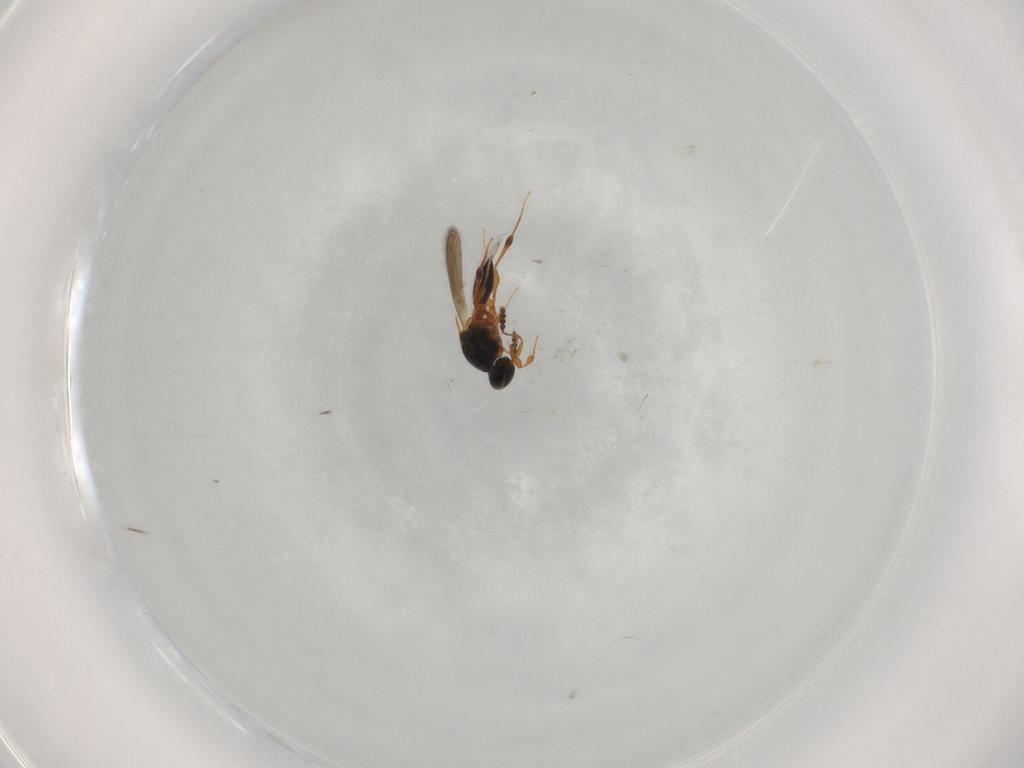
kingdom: Animalia
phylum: Arthropoda
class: Insecta
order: Hymenoptera
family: Platygastridae
